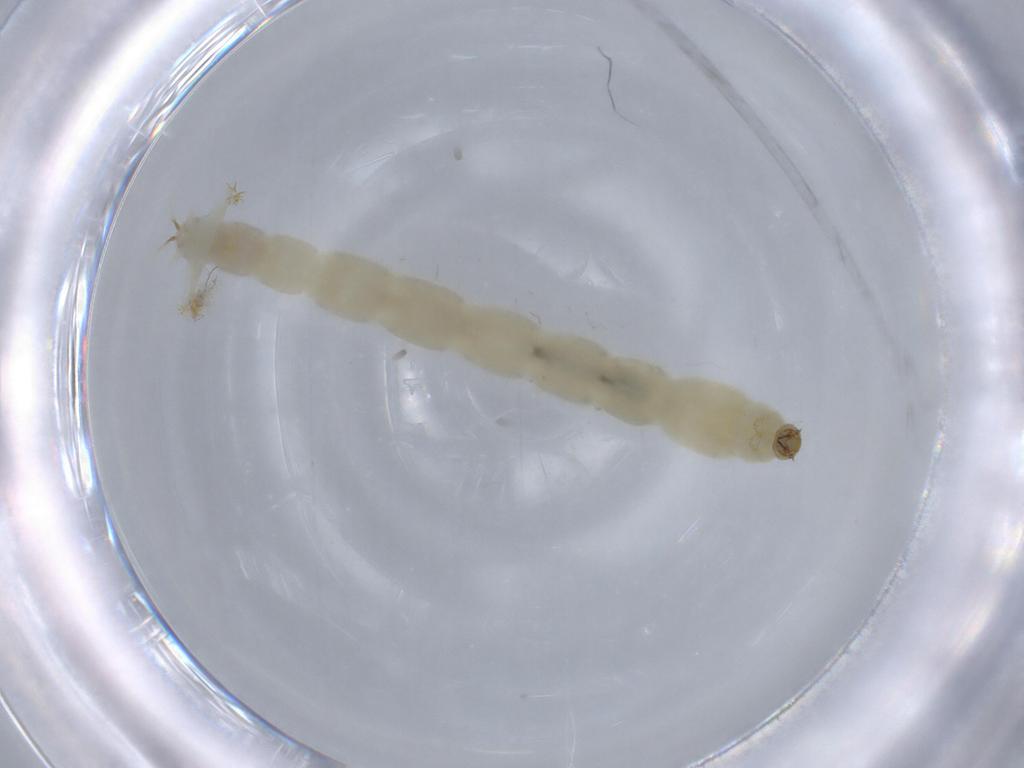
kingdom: Animalia
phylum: Arthropoda
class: Insecta
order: Diptera
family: Chironomidae
